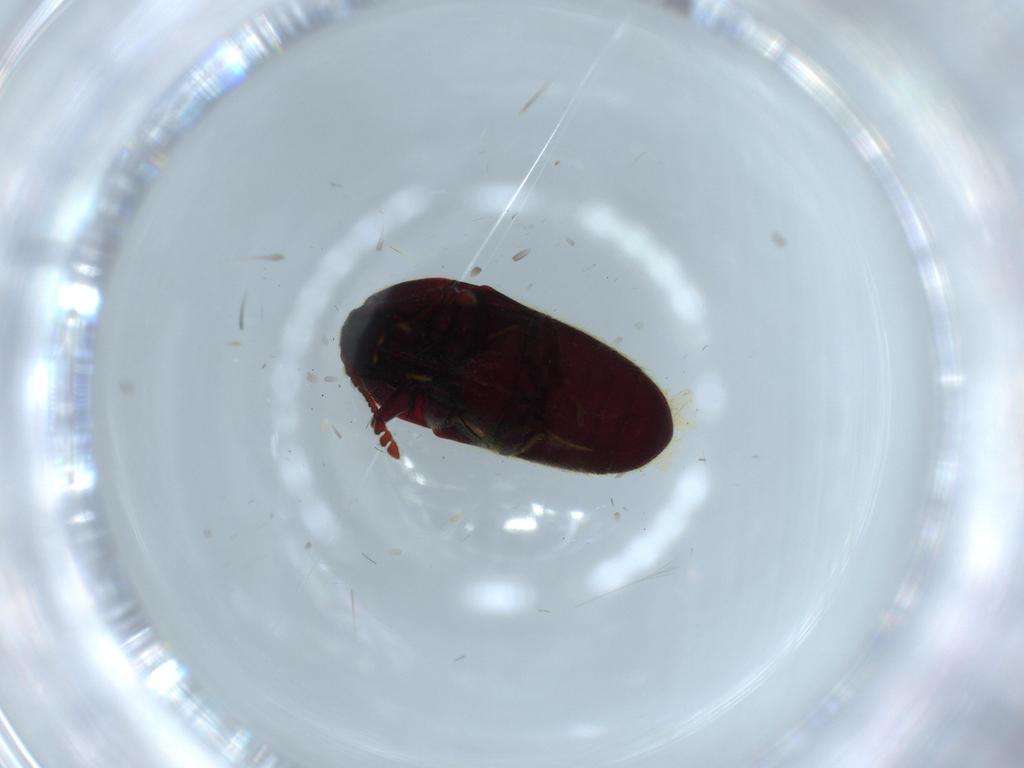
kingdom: Animalia
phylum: Arthropoda
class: Insecta
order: Coleoptera
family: Throscidae
